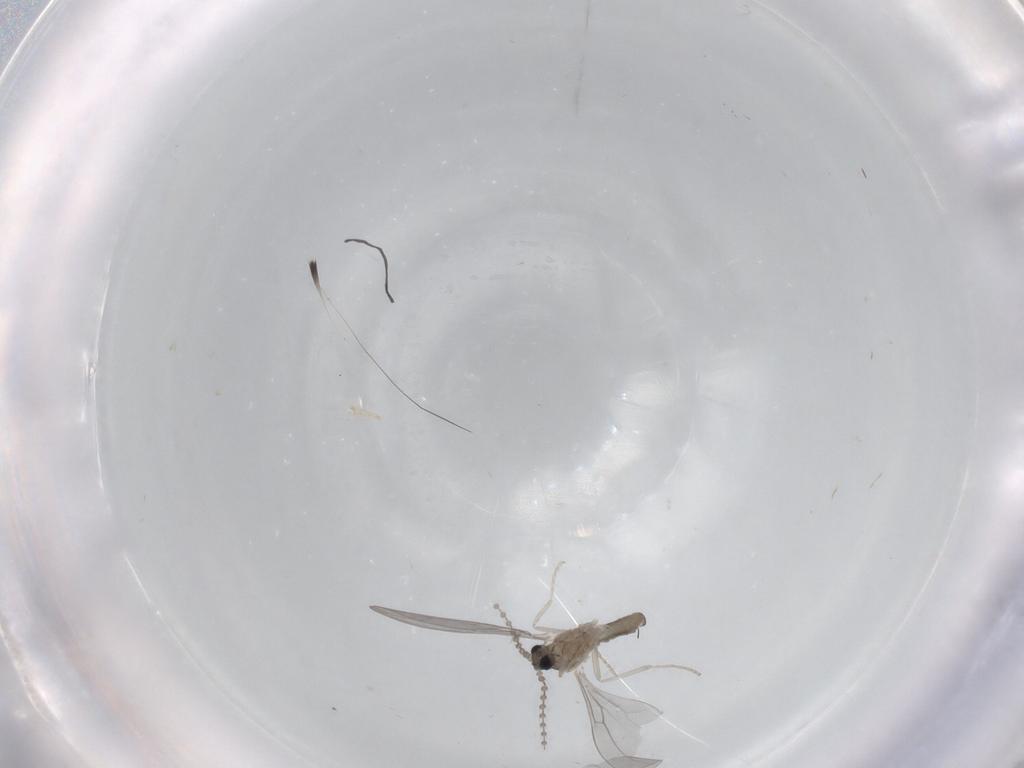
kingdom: Animalia
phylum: Arthropoda
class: Insecta
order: Diptera
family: Cecidomyiidae
